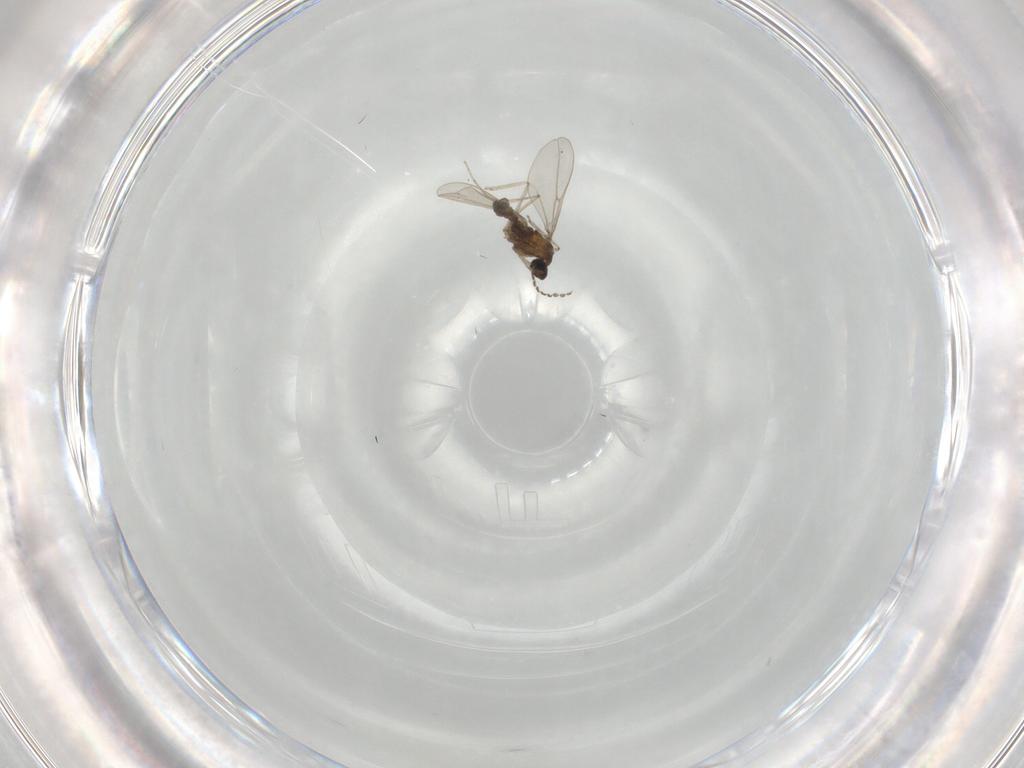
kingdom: Animalia
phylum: Arthropoda
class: Insecta
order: Diptera
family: Cecidomyiidae
